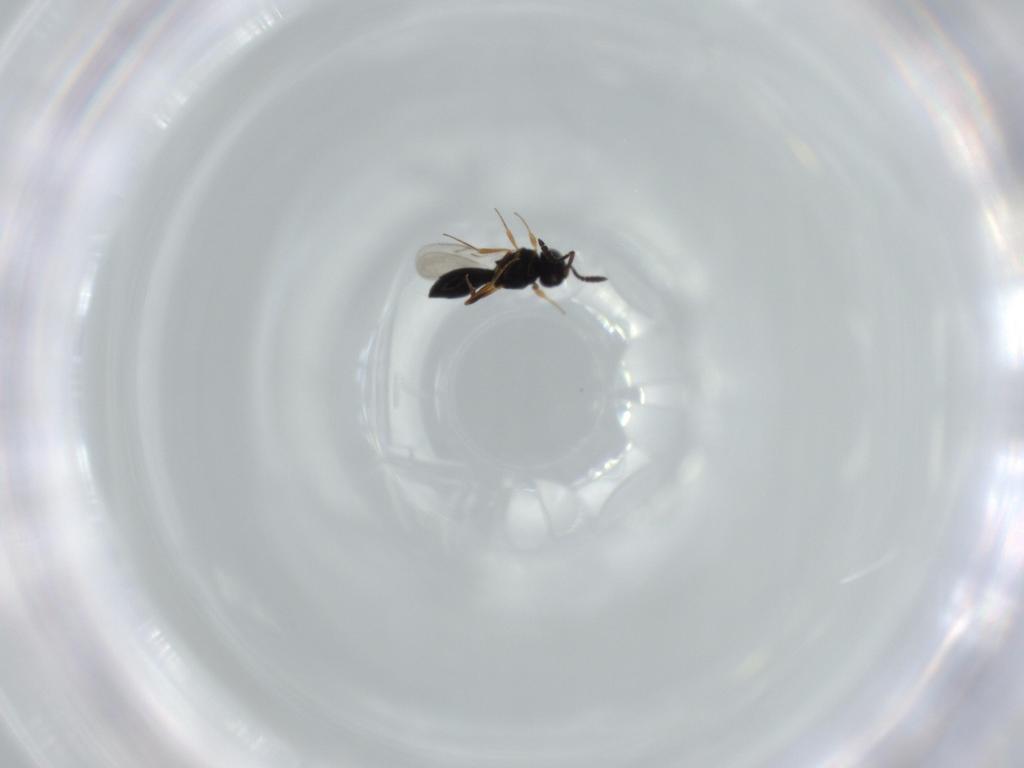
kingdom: Animalia
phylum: Arthropoda
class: Insecta
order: Hymenoptera
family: Scelionidae
